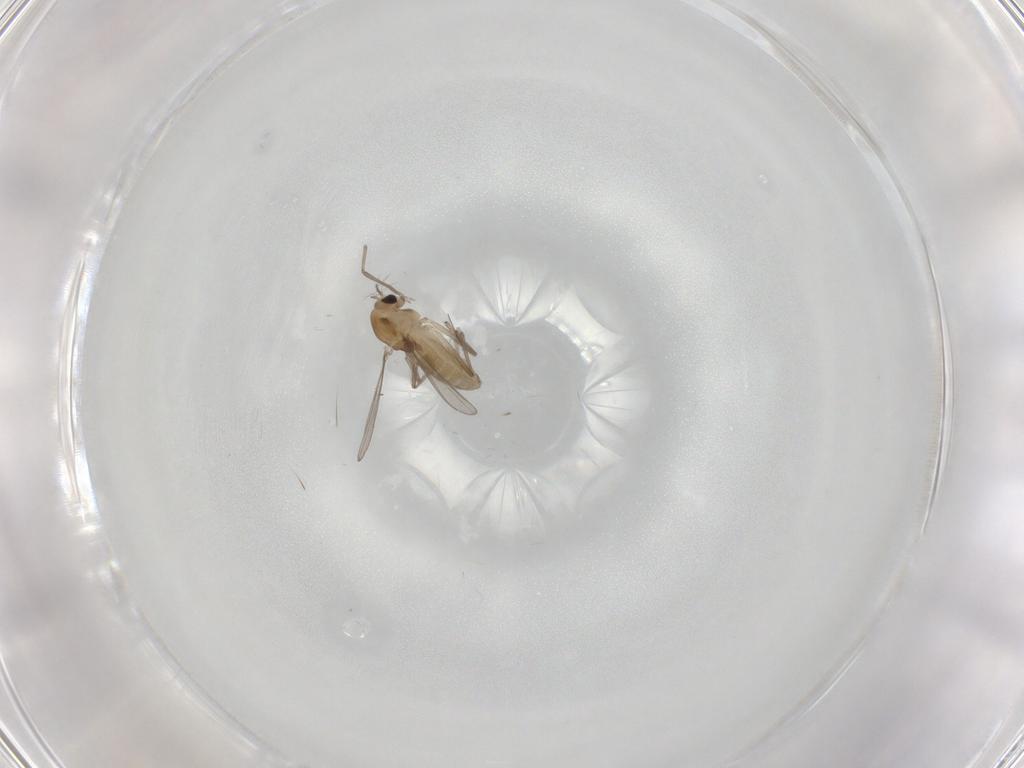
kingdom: Animalia
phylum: Arthropoda
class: Insecta
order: Diptera
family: Chironomidae
